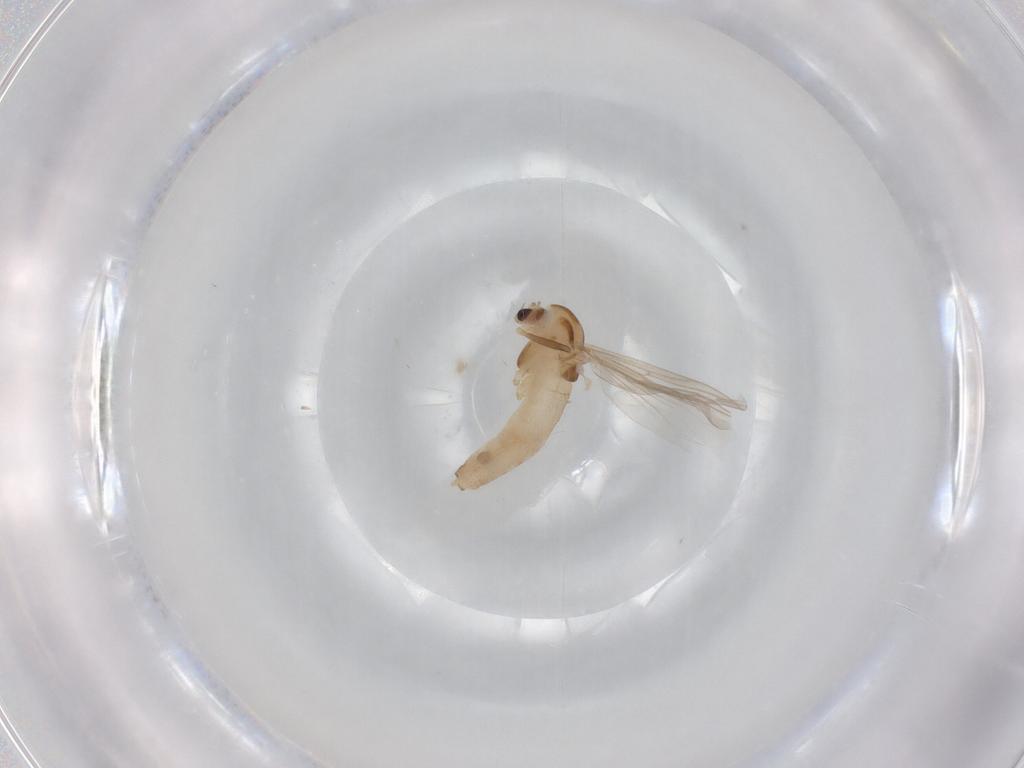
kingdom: Animalia
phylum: Arthropoda
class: Insecta
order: Diptera
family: Chironomidae
